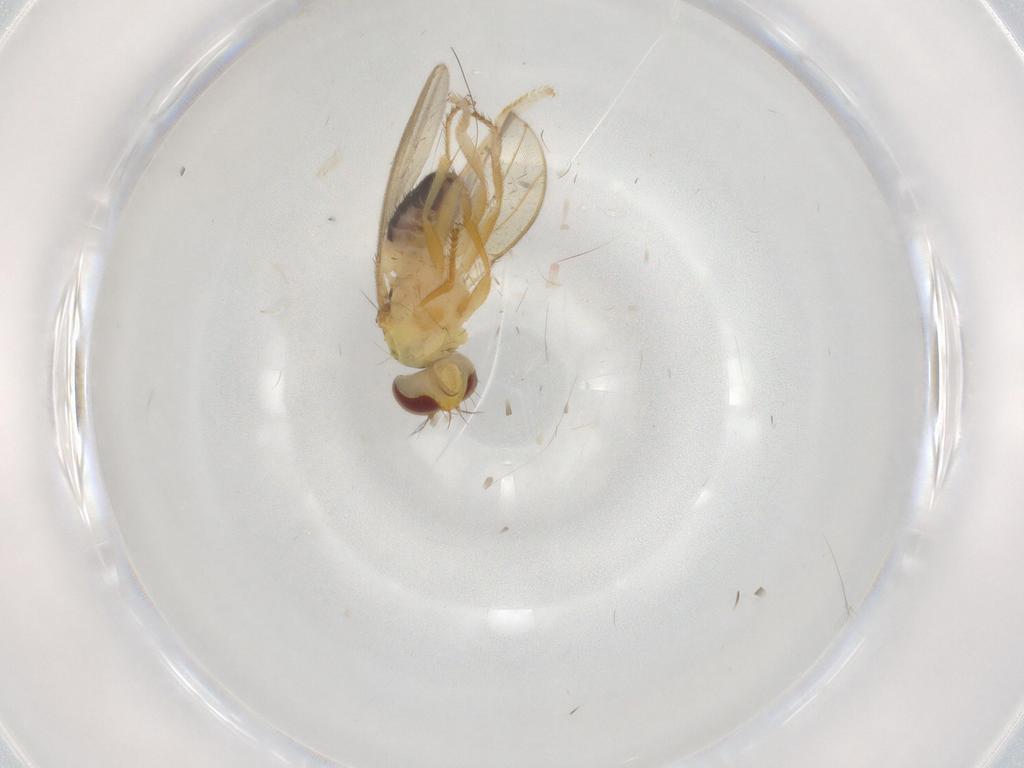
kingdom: Animalia
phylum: Arthropoda
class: Insecta
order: Diptera
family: Periscelididae
